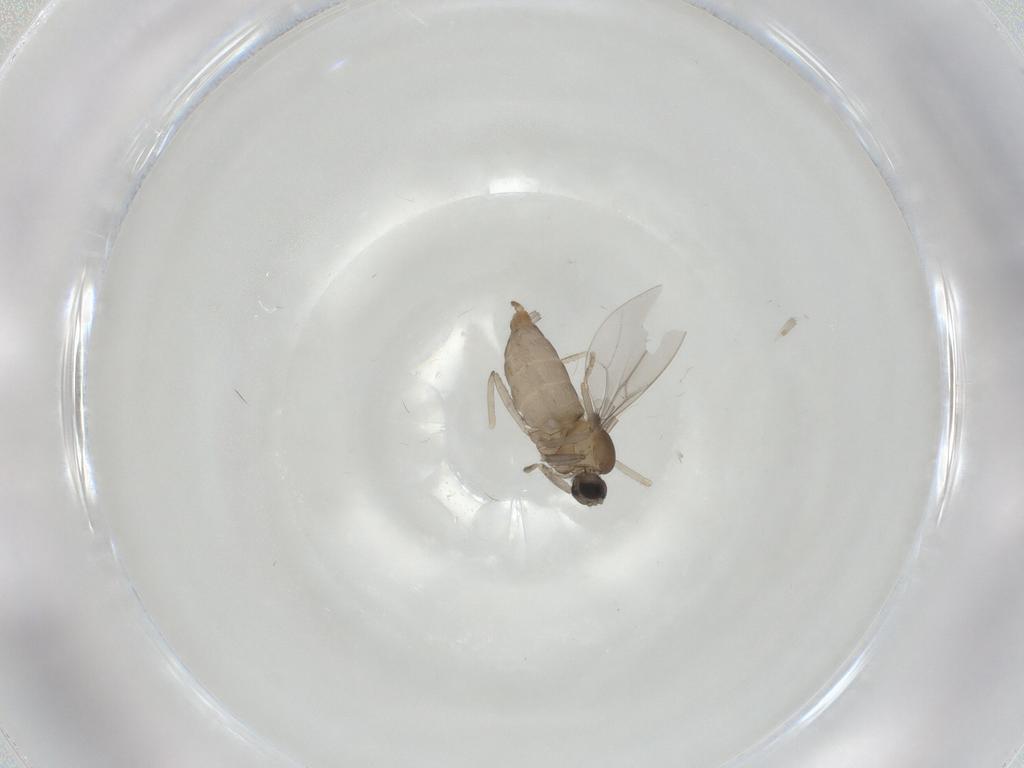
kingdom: Animalia
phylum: Arthropoda
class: Insecta
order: Diptera
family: Cecidomyiidae
